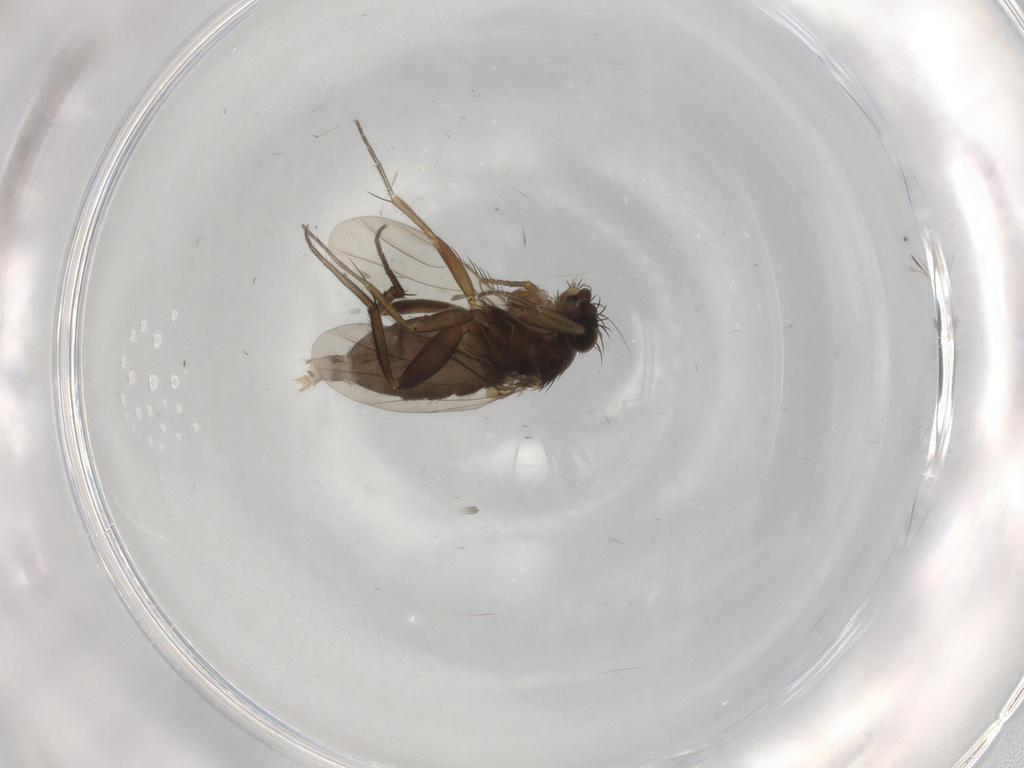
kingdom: Animalia
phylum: Arthropoda
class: Insecta
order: Diptera
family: Phoridae
